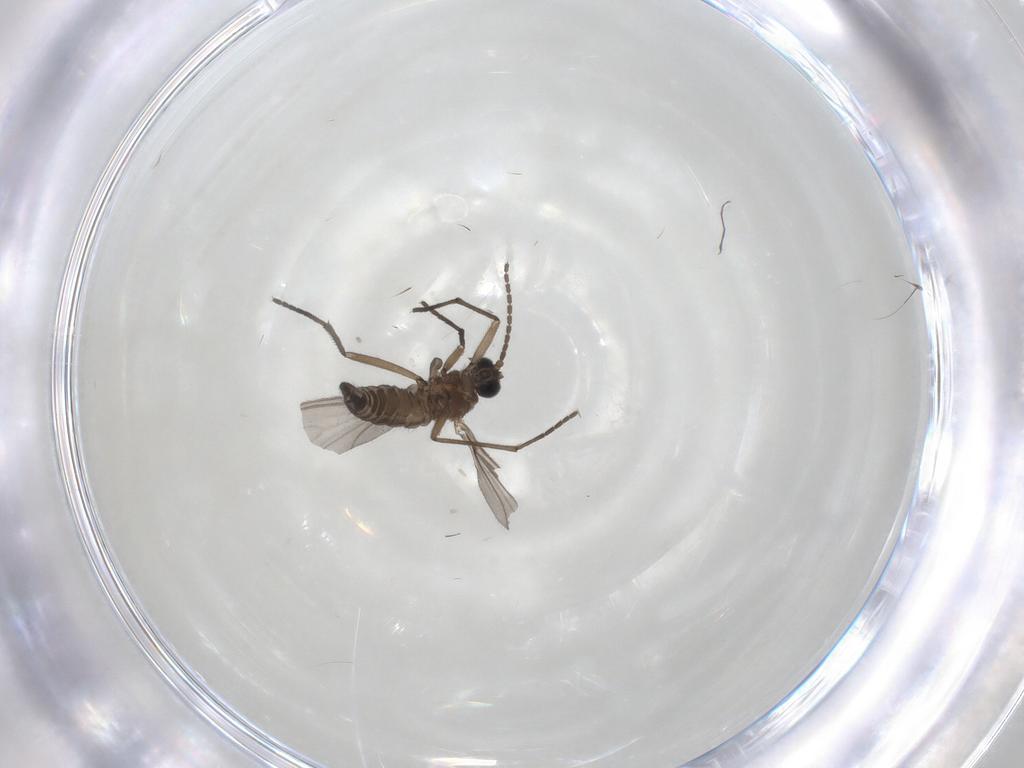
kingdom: Animalia
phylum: Arthropoda
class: Insecta
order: Diptera
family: Sciaridae
